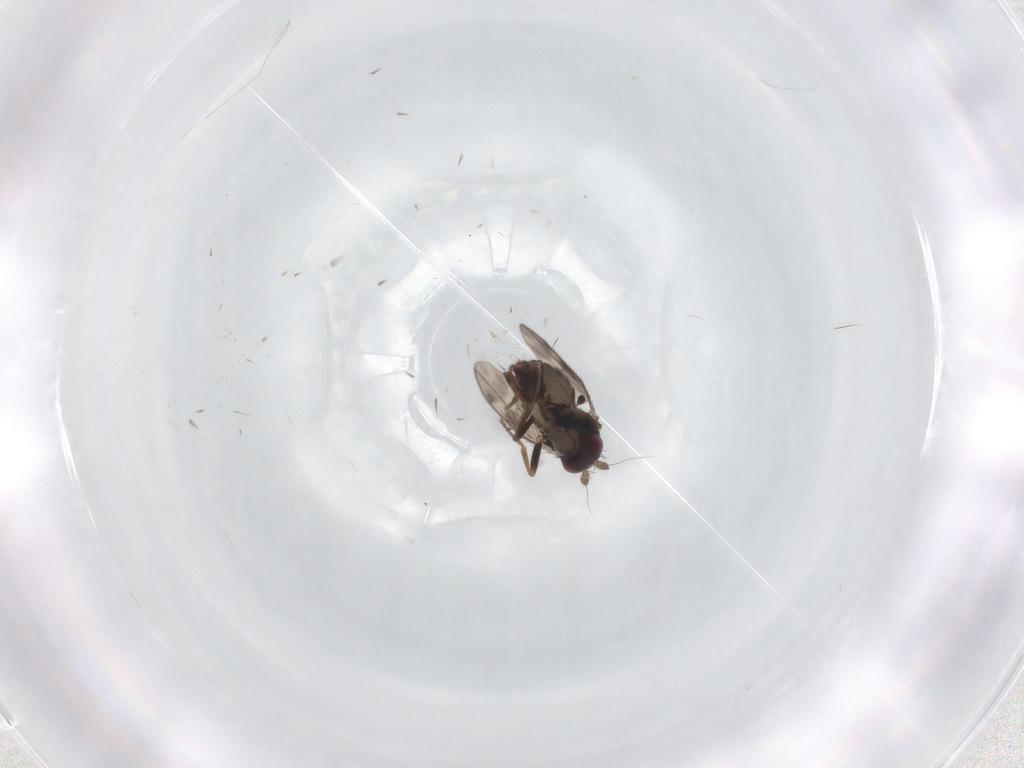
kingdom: Animalia
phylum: Arthropoda
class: Insecta
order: Diptera
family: Sphaeroceridae
